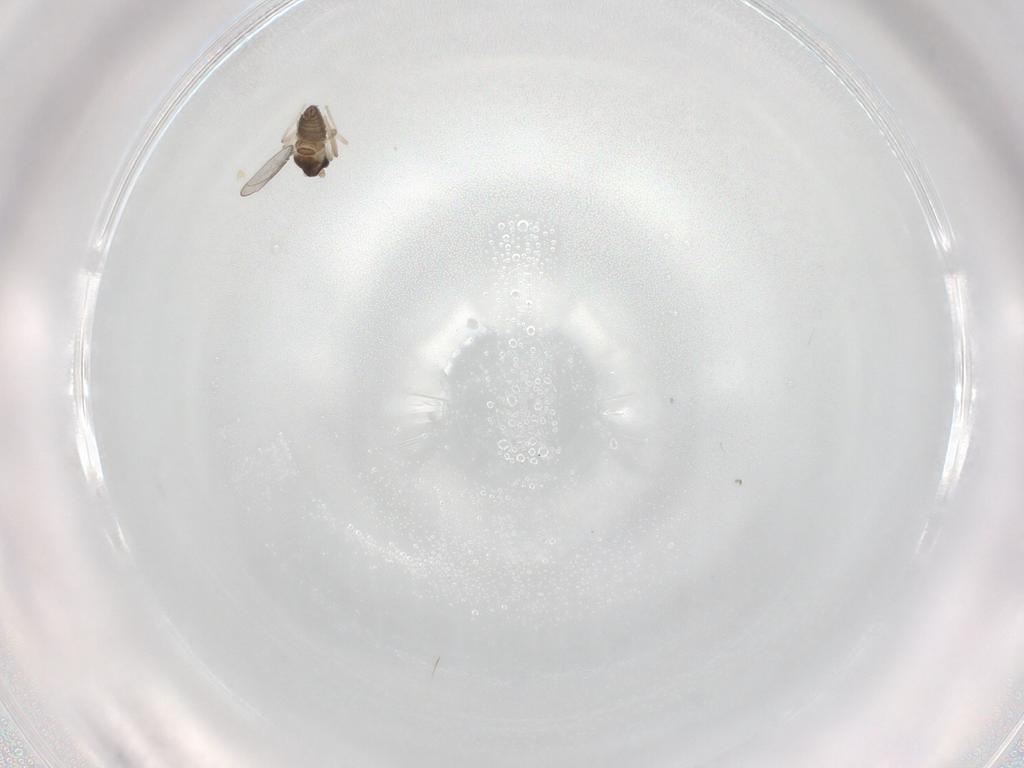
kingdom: Animalia
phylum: Arthropoda
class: Insecta
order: Diptera
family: Cecidomyiidae
